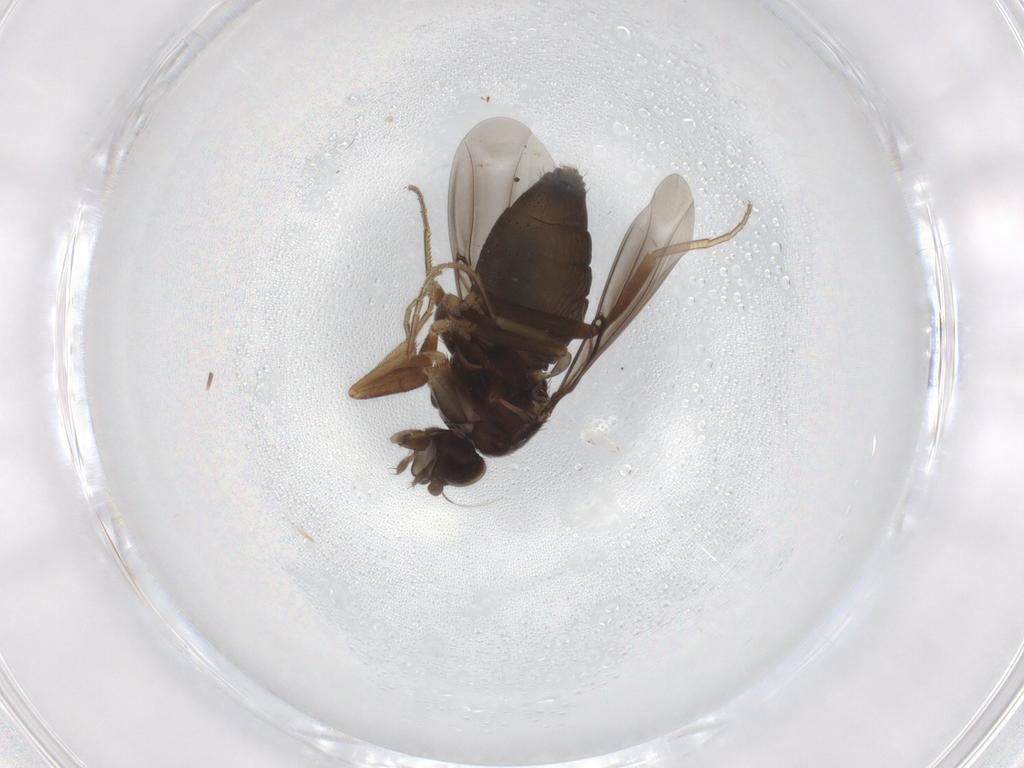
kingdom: Animalia
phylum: Arthropoda
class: Insecta
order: Diptera
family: Phoridae
